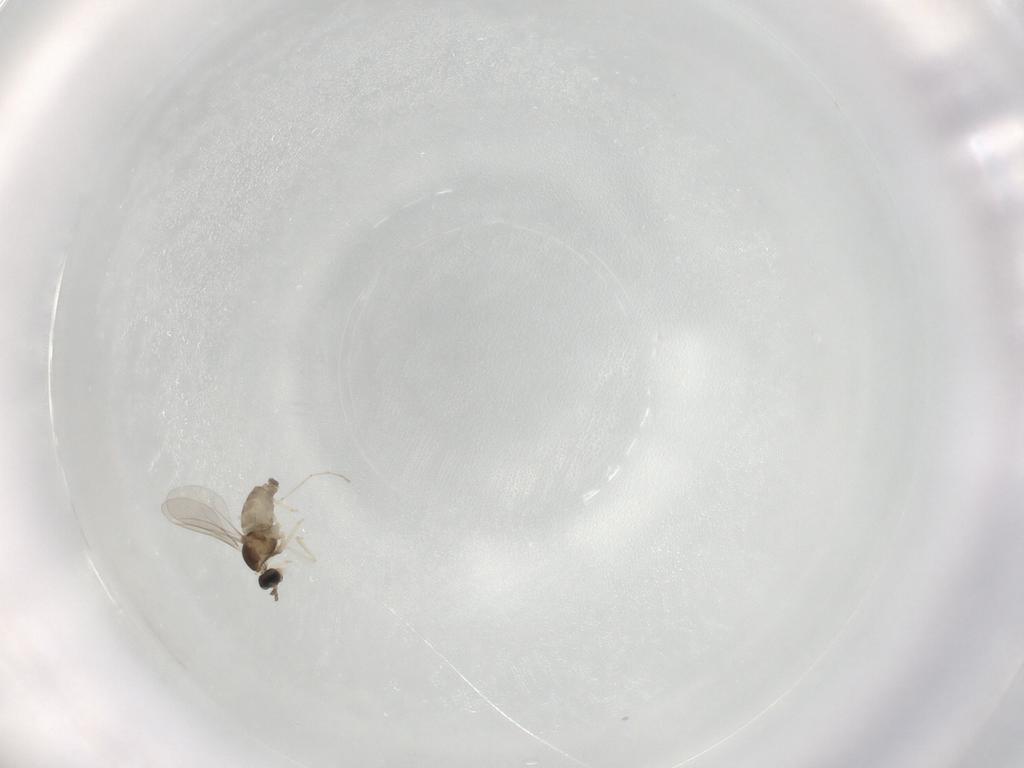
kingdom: Animalia
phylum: Arthropoda
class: Insecta
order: Diptera
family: Cecidomyiidae
